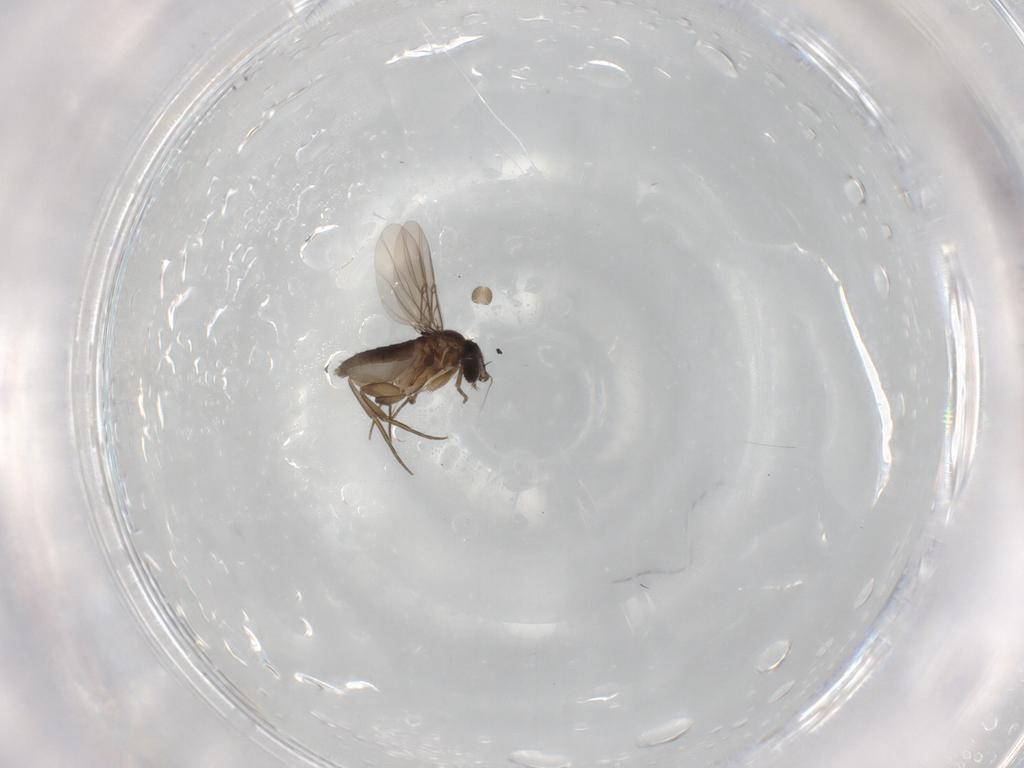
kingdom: Animalia
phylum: Arthropoda
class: Insecta
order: Diptera
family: Phoridae
